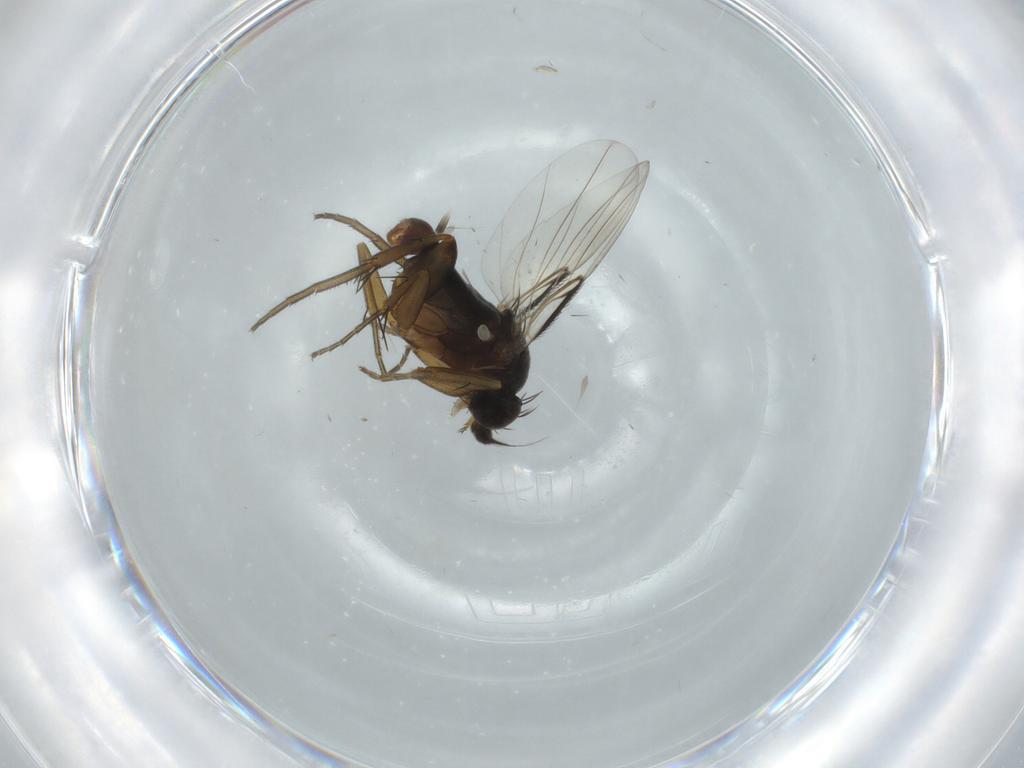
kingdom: Animalia
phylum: Arthropoda
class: Insecta
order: Diptera
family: Phoridae
